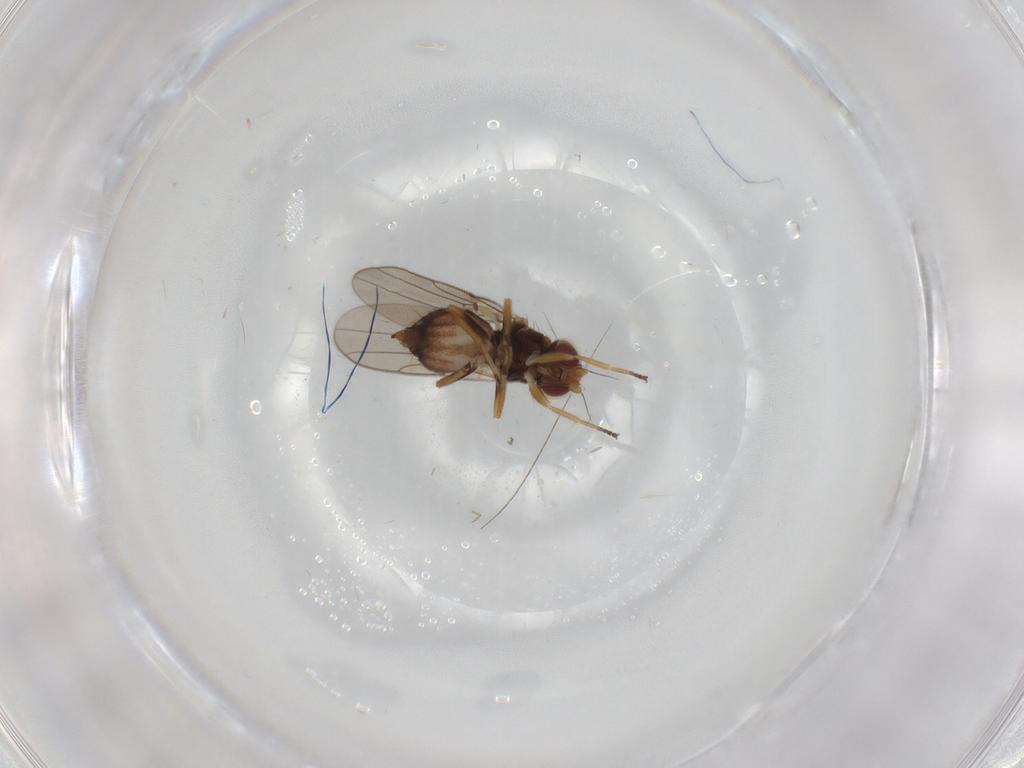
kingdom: Animalia
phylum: Arthropoda
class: Insecta
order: Diptera
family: Chloropidae
